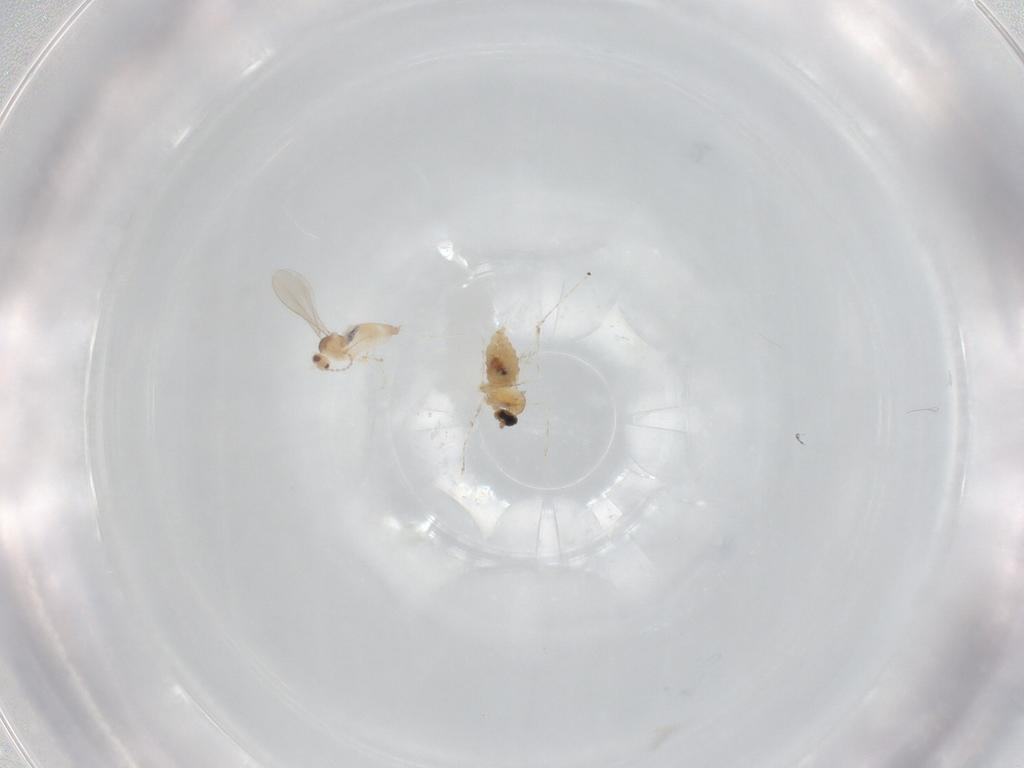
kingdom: Animalia
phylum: Arthropoda
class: Insecta
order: Diptera
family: Cecidomyiidae
